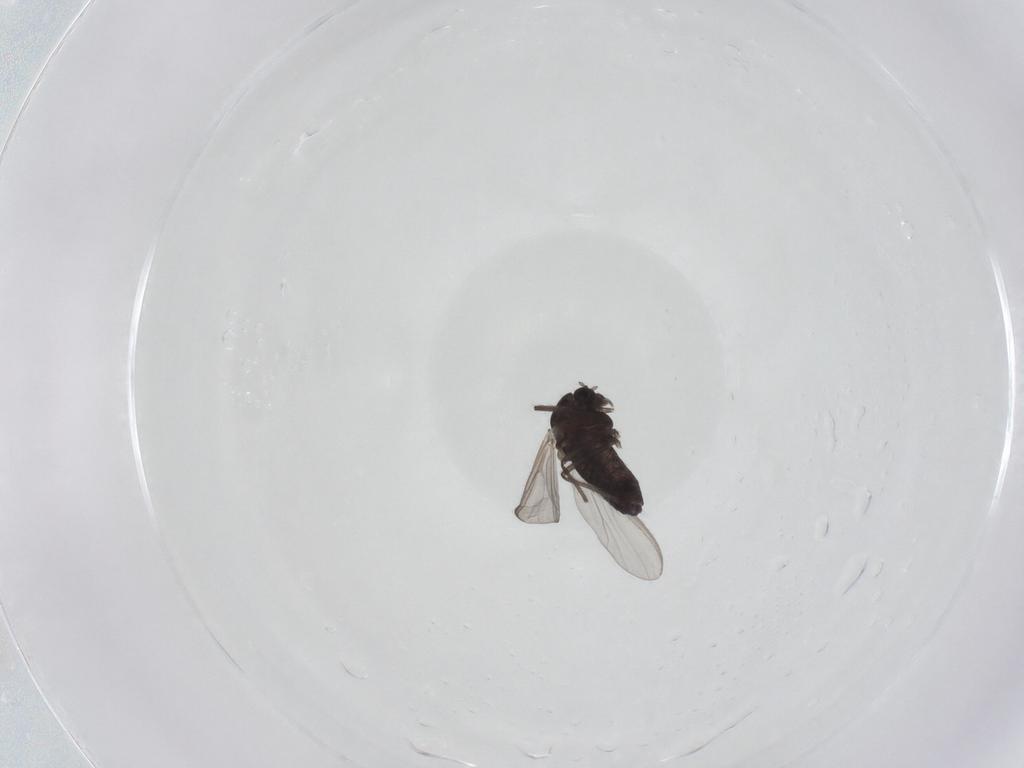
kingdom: Animalia
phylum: Arthropoda
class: Insecta
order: Diptera
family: Chironomidae
